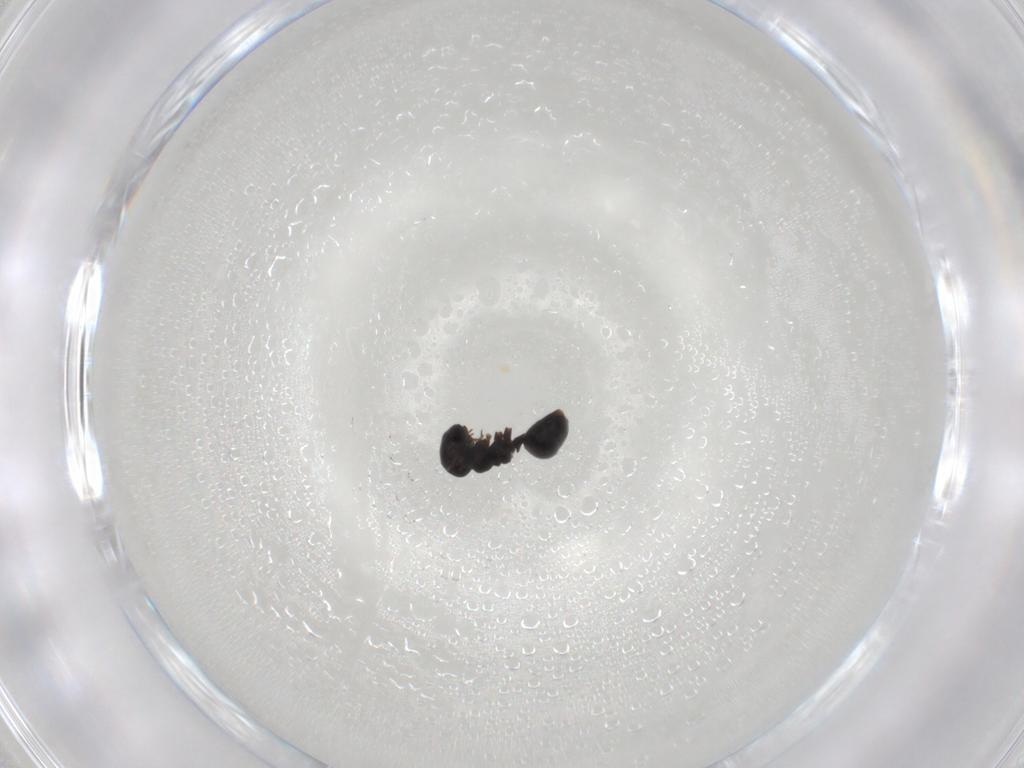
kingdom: Animalia
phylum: Arthropoda
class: Insecta
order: Hymenoptera
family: Formicidae
